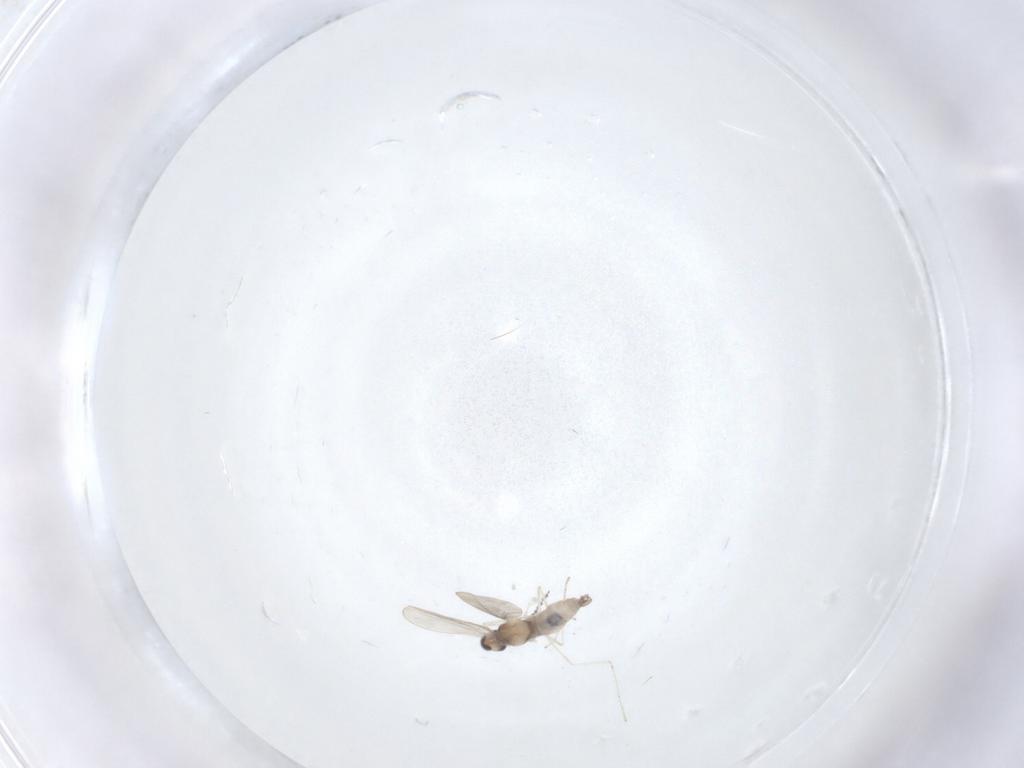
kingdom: Animalia
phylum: Arthropoda
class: Insecta
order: Diptera
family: Cecidomyiidae
